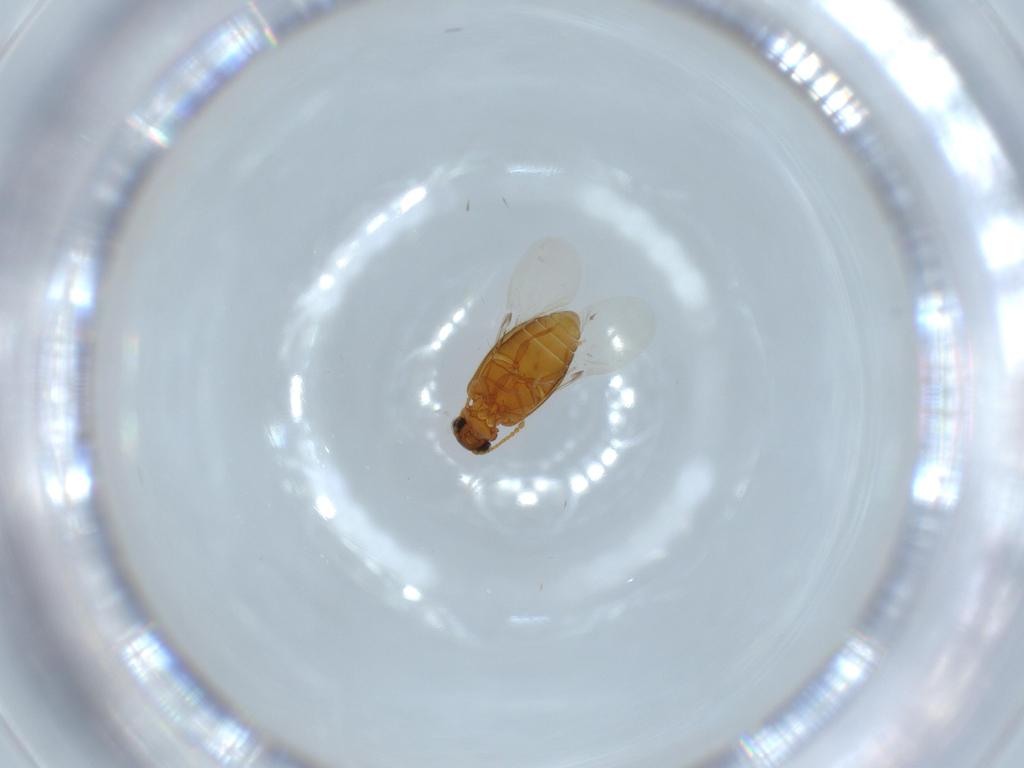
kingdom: Animalia
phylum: Arthropoda
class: Insecta
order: Coleoptera
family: Aderidae
